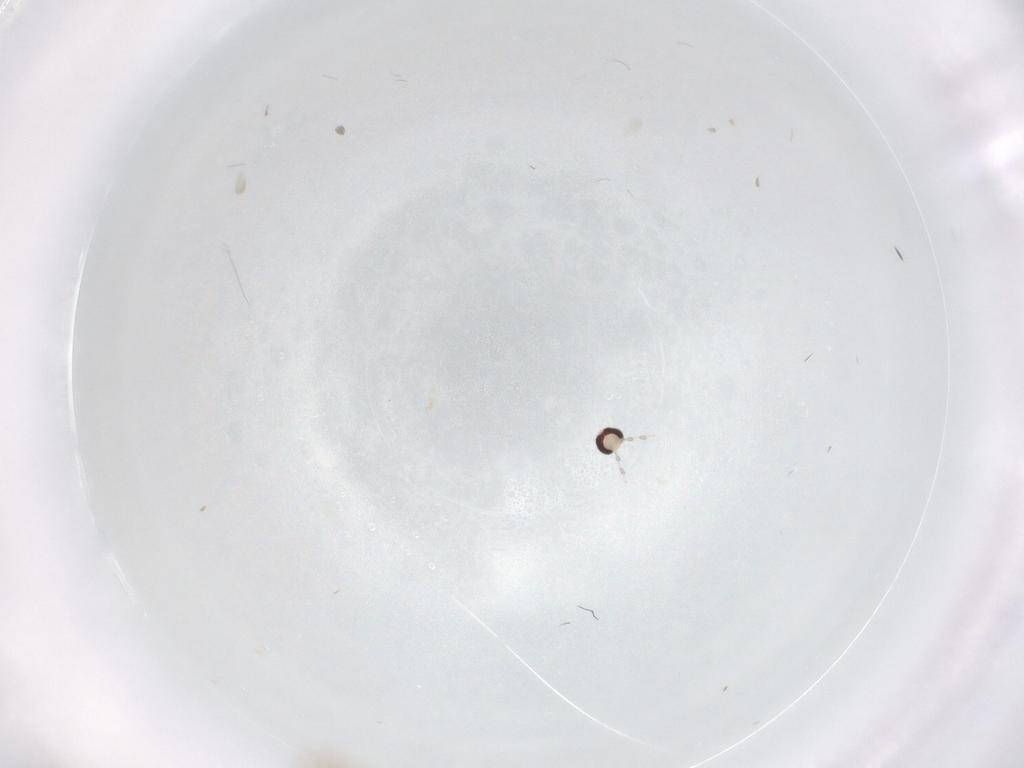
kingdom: Animalia
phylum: Arthropoda
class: Insecta
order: Diptera
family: Cecidomyiidae
